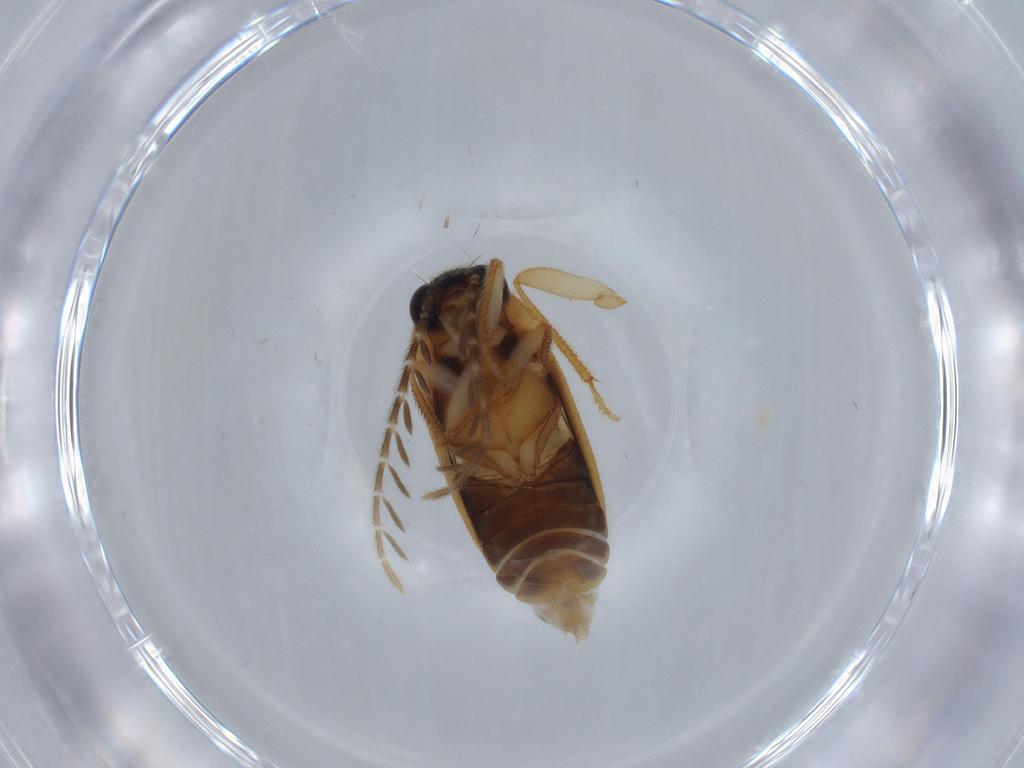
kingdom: Animalia
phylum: Arthropoda
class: Insecta
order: Coleoptera
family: Ptilodactylidae
